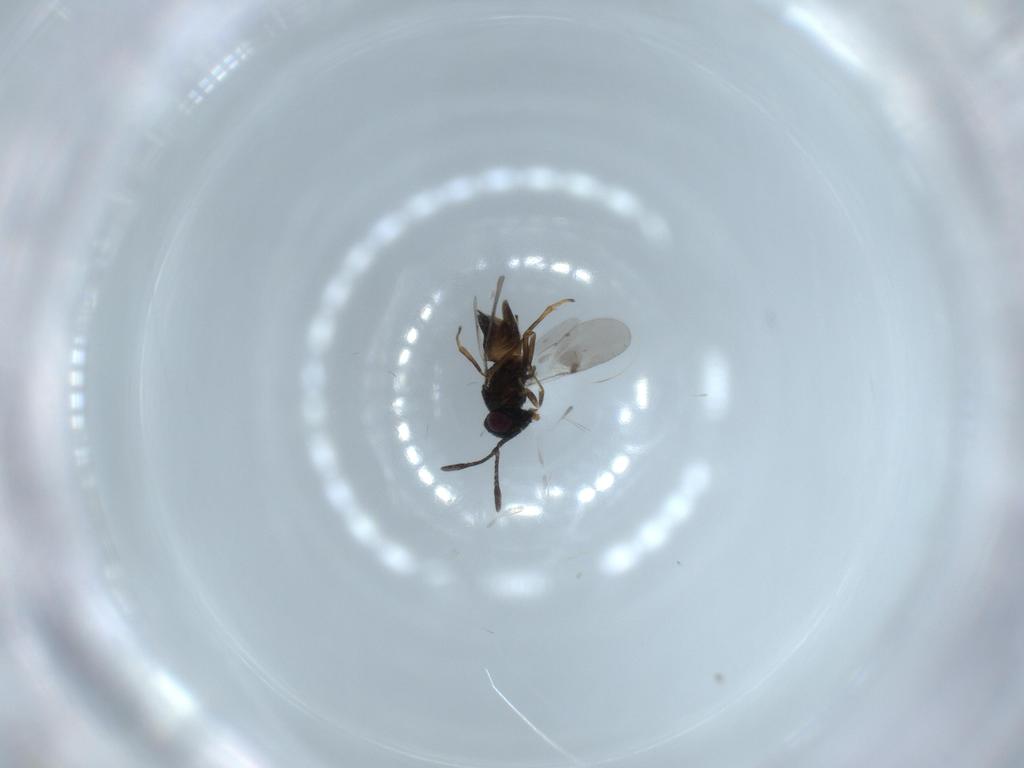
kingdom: Animalia
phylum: Arthropoda
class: Insecta
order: Hymenoptera
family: Encyrtidae
